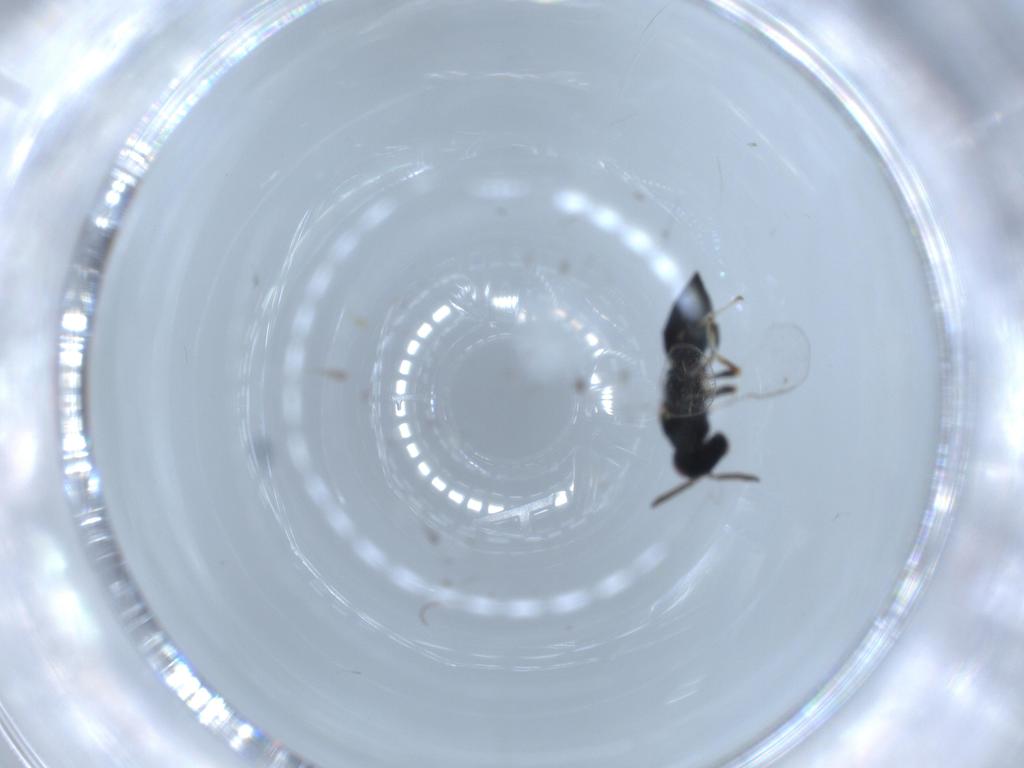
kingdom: Animalia
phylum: Arthropoda
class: Insecta
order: Hymenoptera
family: Pteromalidae
